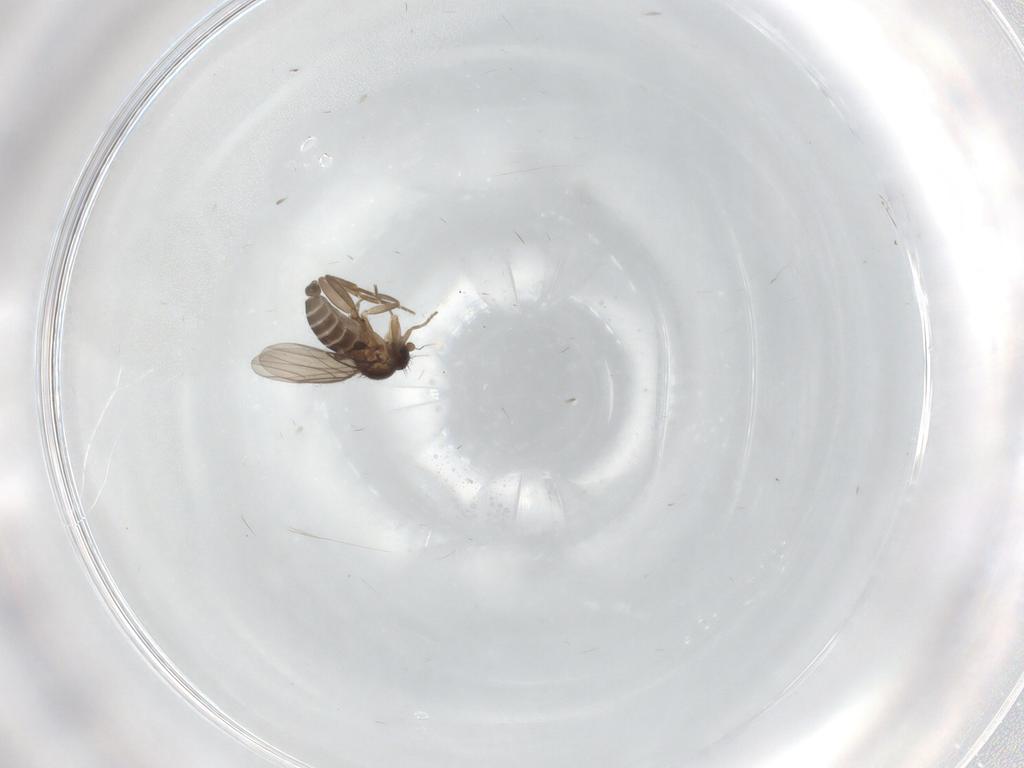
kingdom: Animalia
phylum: Arthropoda
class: Insecta
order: Diptera
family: Phoridae
